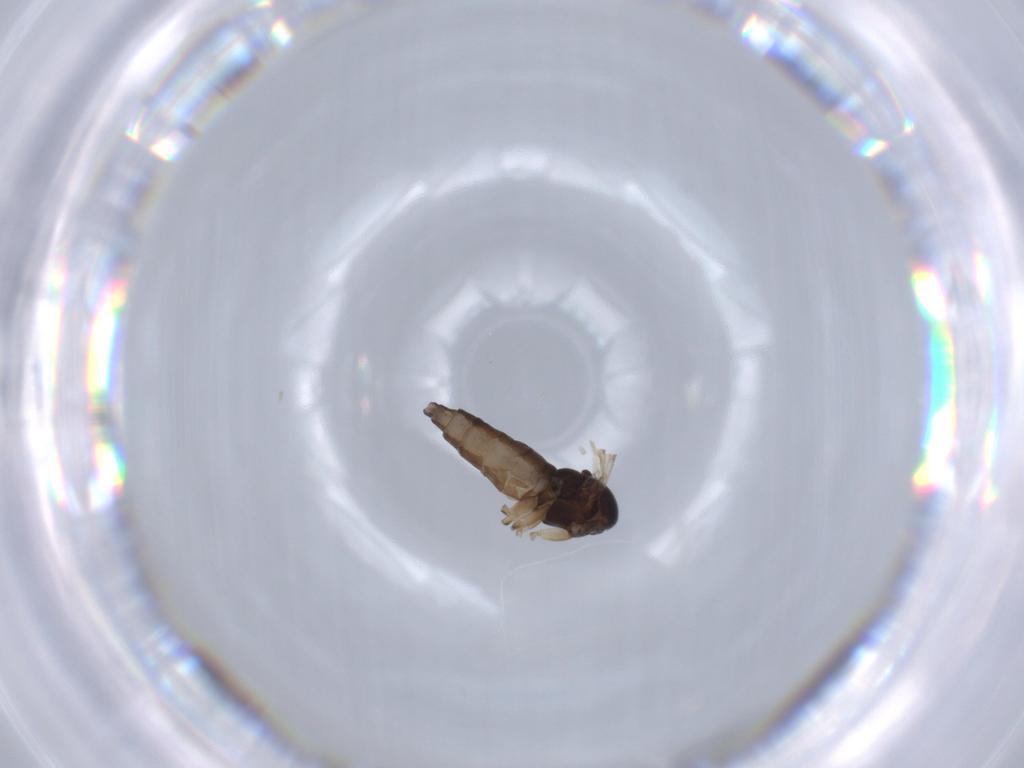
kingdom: Animalia
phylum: Arthropoda
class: Insecta
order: Diptera
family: Sciaridae
